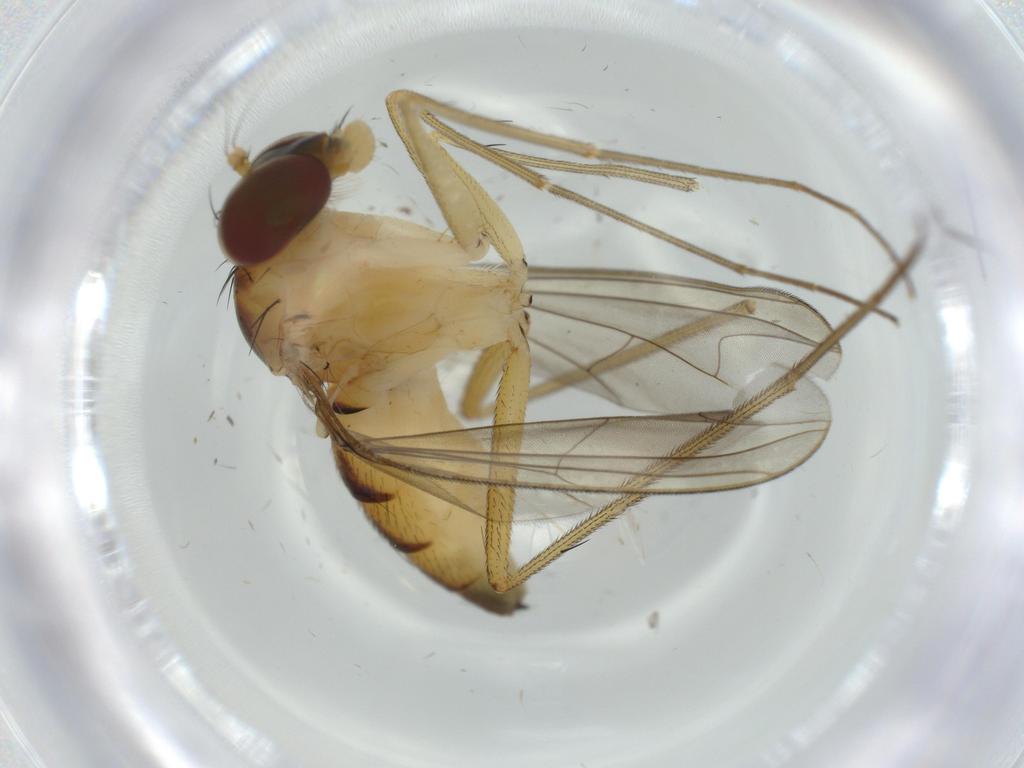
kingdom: Animalia
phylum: Arthropoda
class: Insecta
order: Diptera
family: Dolichopodidae
